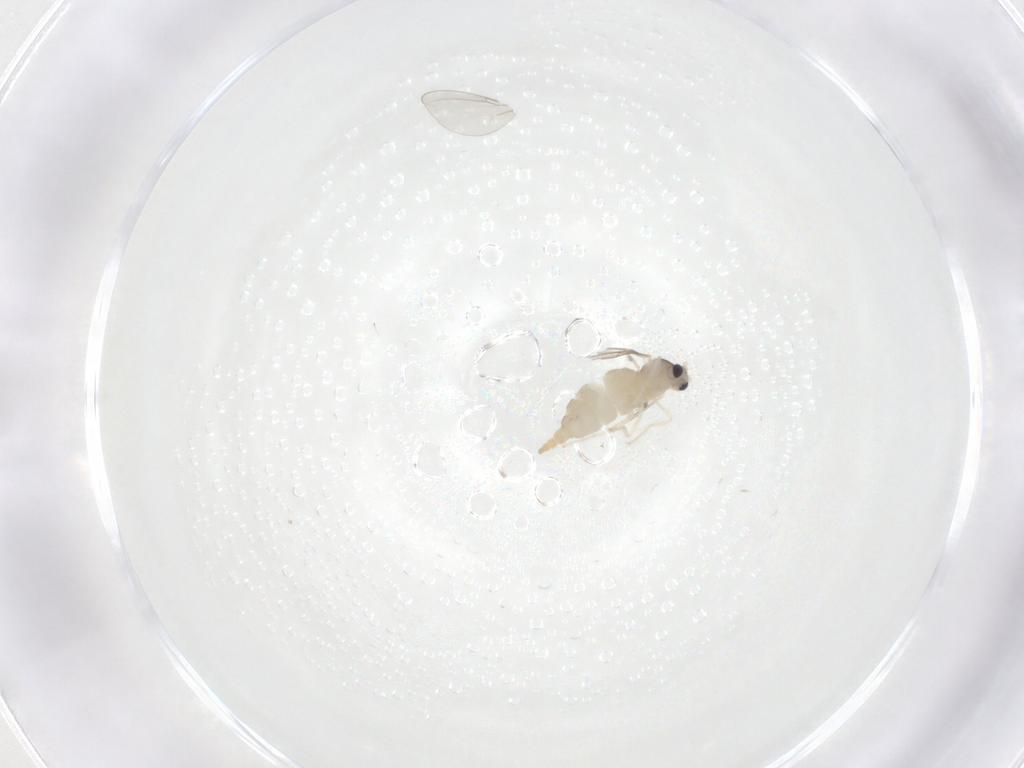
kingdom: Animalia
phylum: Arthropoda
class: Insecta
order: Diptera
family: Cecidomyiidae
